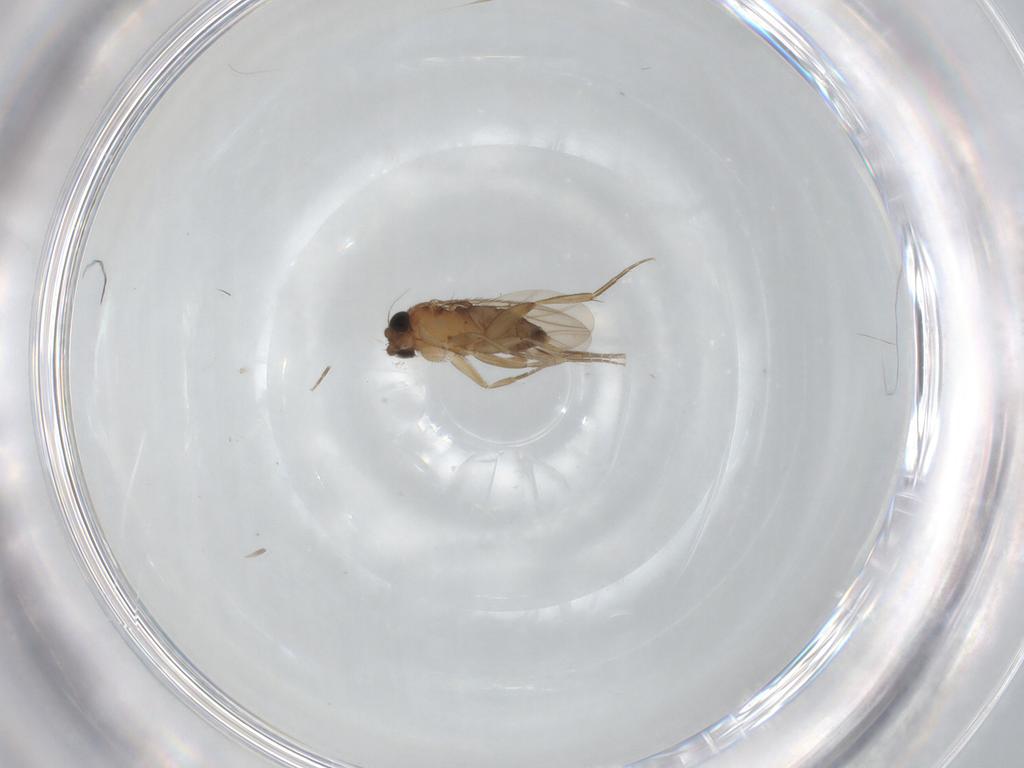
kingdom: Animalia
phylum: Arthropoda
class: Insecta
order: Diptera
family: Phoridae
